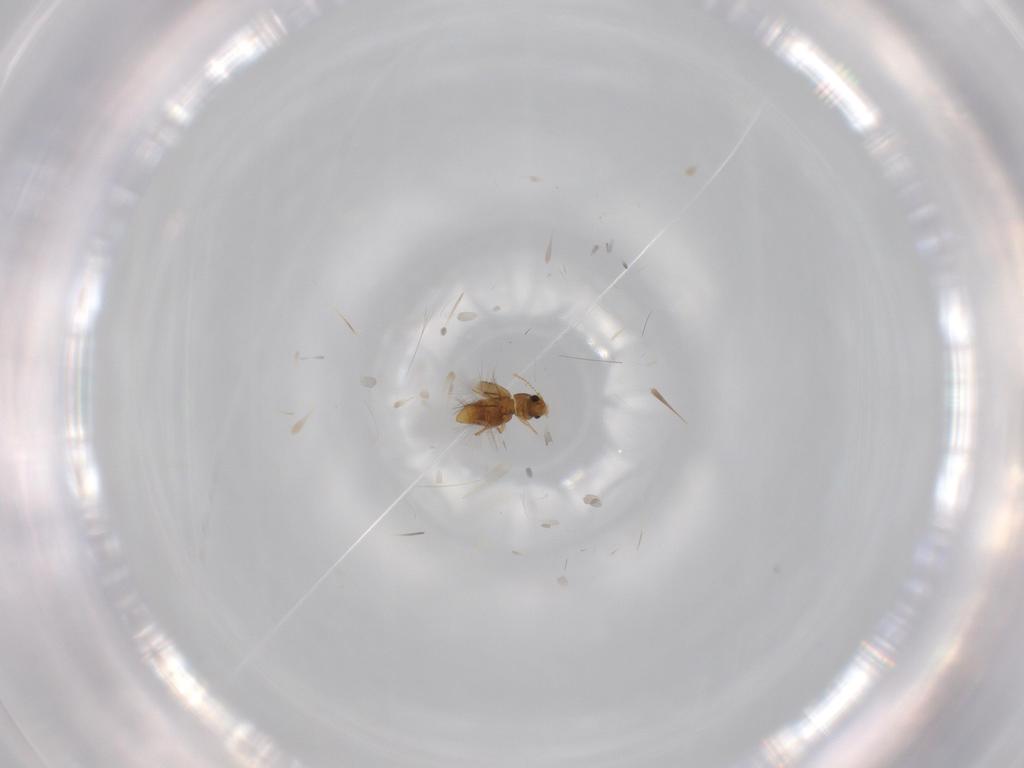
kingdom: Animalia
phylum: Arthropoda
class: Insecta
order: Coleoptera
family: Ptiliidae
